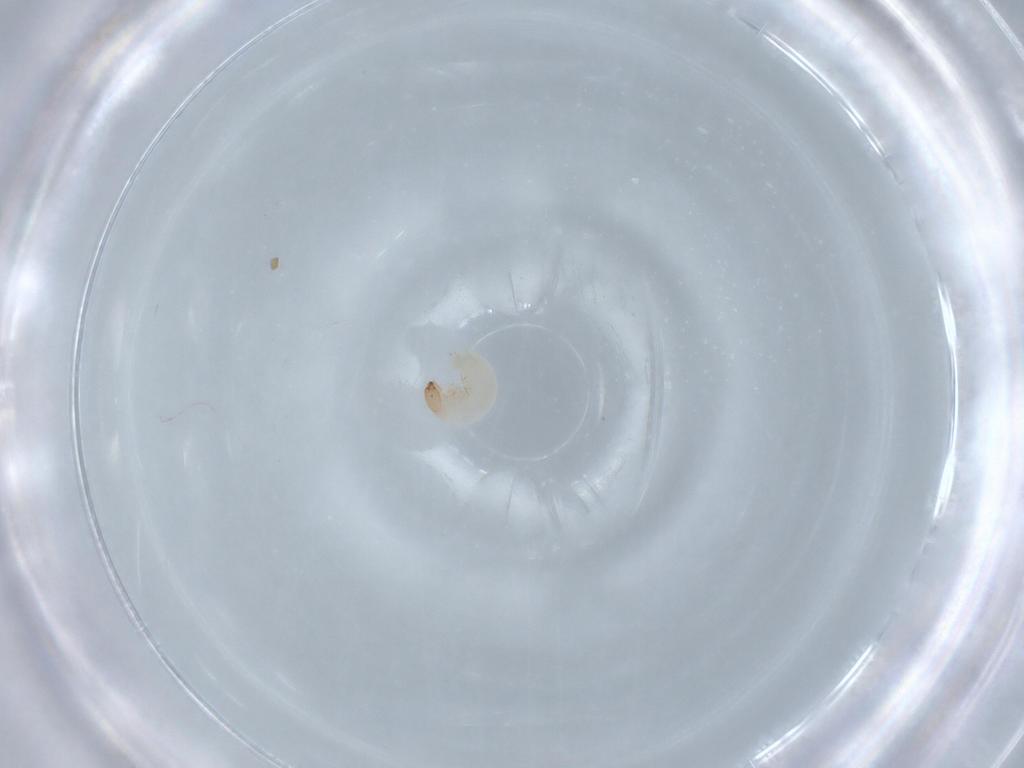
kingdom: Animalia
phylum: Arthropoda
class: Insecta
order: Coleoptera
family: Chrysomelidae
